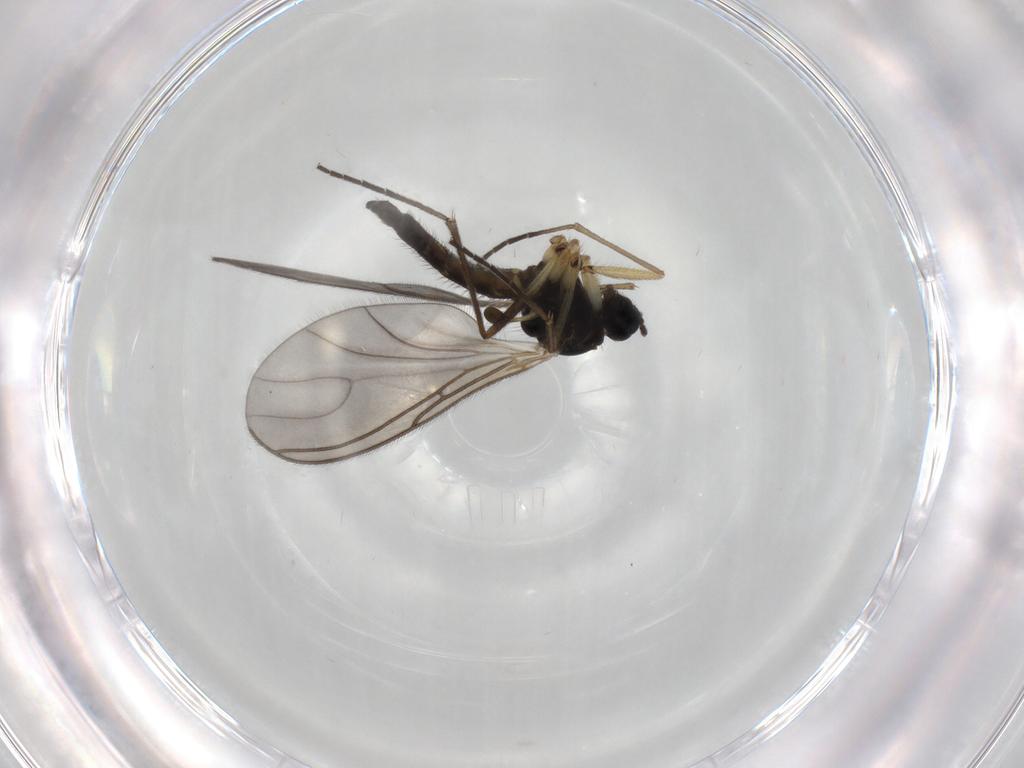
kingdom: Animalia
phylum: Arthropoda
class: Insecta
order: Diptera
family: Sciaridae
